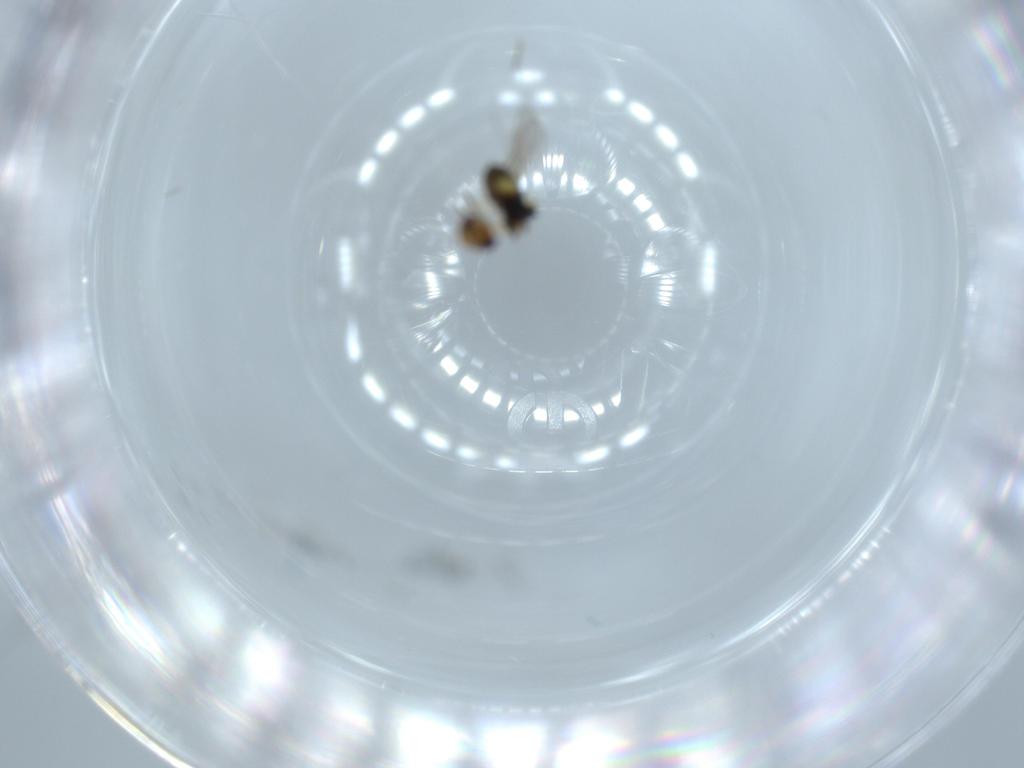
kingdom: Animalia
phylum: Arthropoda
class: Insecta
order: Hymenoptera
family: Aphelinidae
